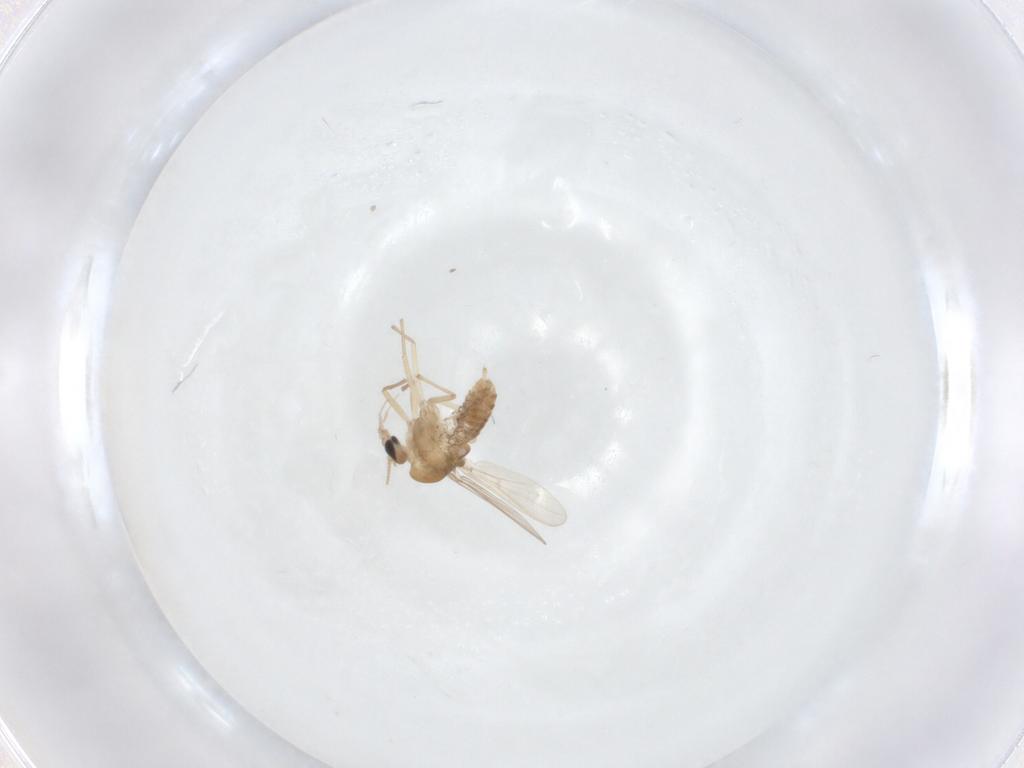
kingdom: Animalia
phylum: Arthropoda
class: Insecta
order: Diptera
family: Chironomidae
